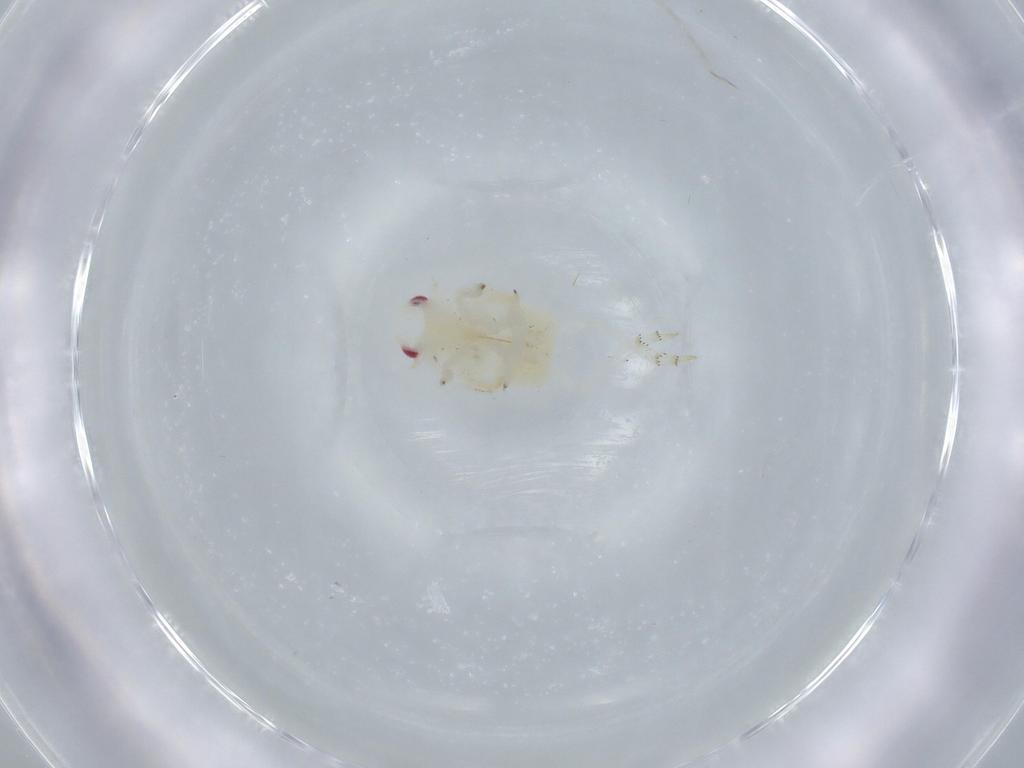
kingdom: Animalia
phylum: Arthropoda
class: Insecta
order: Hemiptera
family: Flatidae
